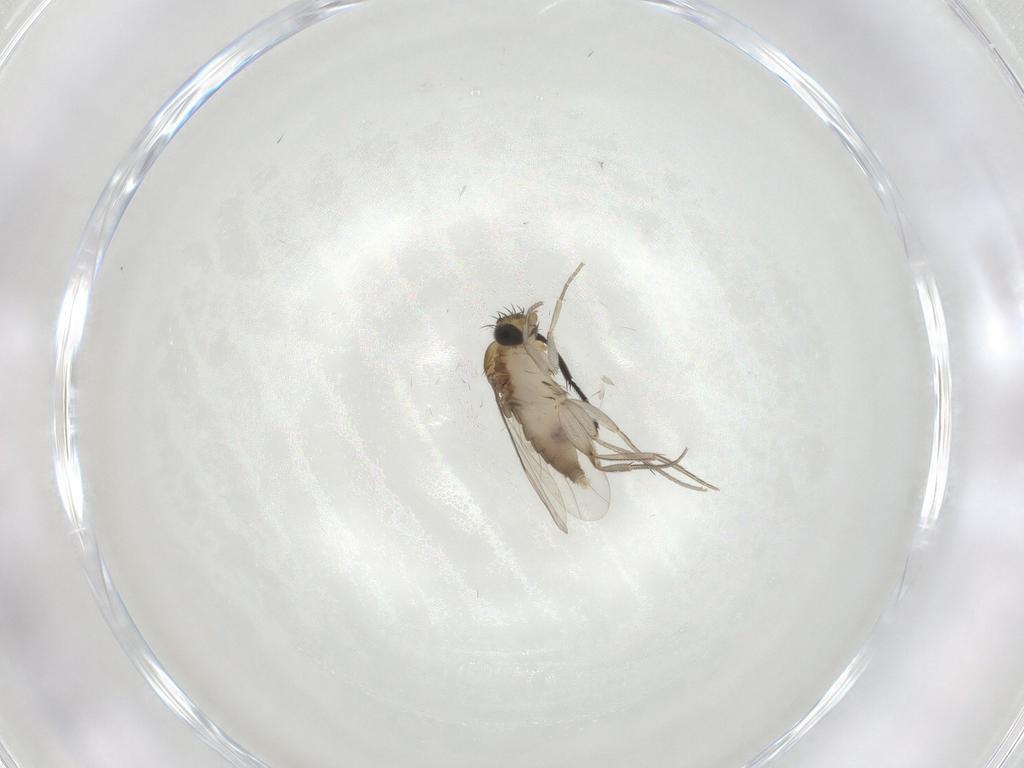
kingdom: Animalia
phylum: Arthropoda
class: Insecta
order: Diptera
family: Phoridae
